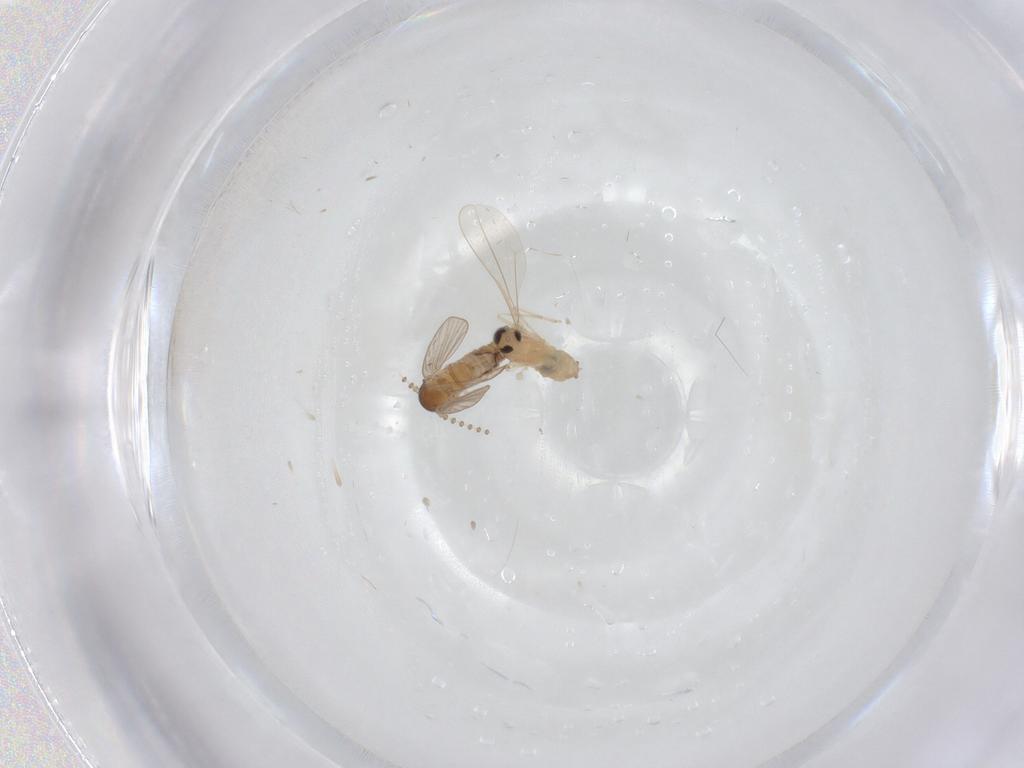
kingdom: Animalia
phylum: Arthropoda
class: Insecta
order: Diptera
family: Cecidomyiidae
